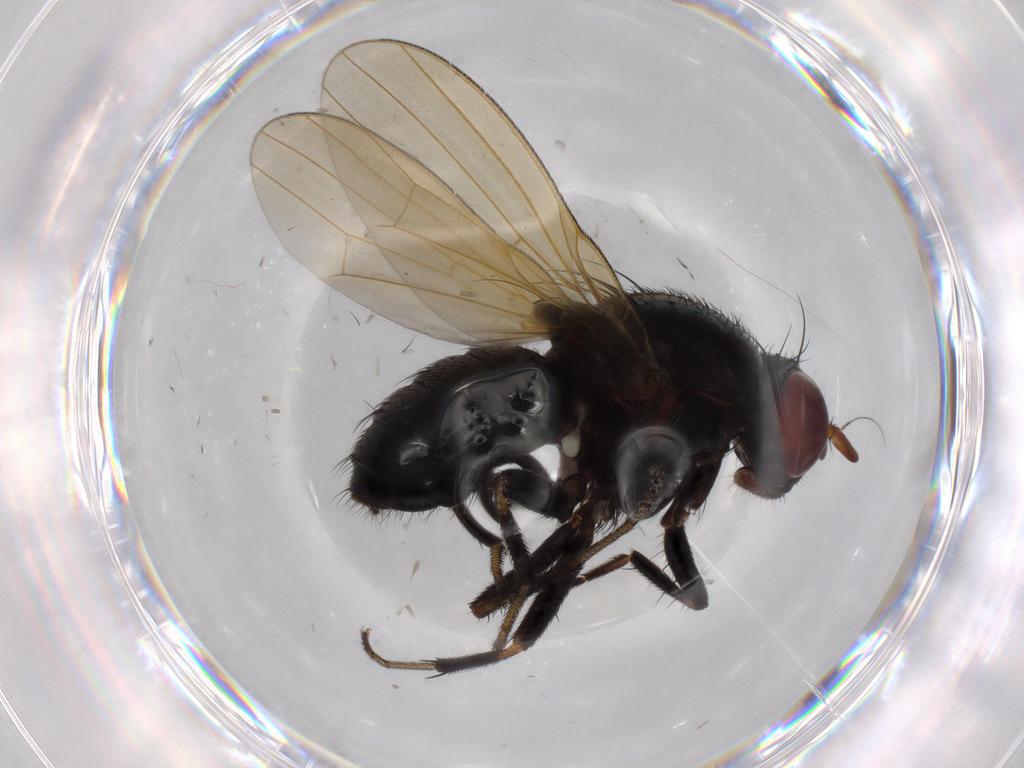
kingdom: Animalia
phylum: Arthropoda
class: Insecta
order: Diptera
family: Lauxaniidae
